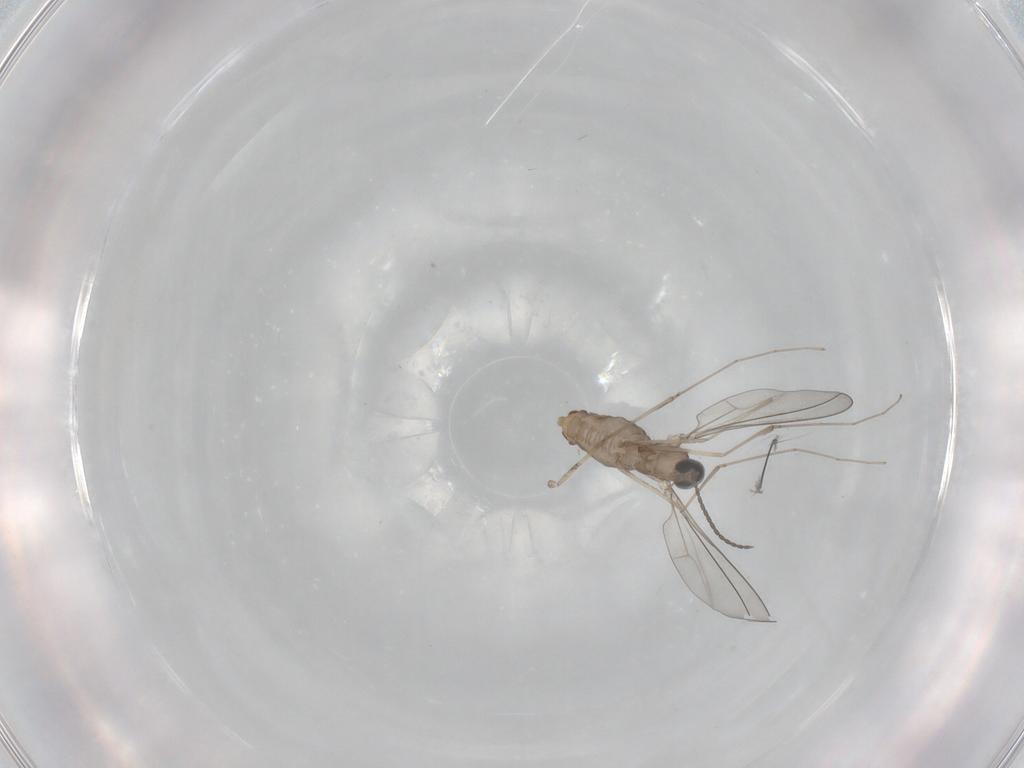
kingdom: Animalia
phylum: Arthropoda
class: Insecta
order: Diptera
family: Cecidomyiidae
